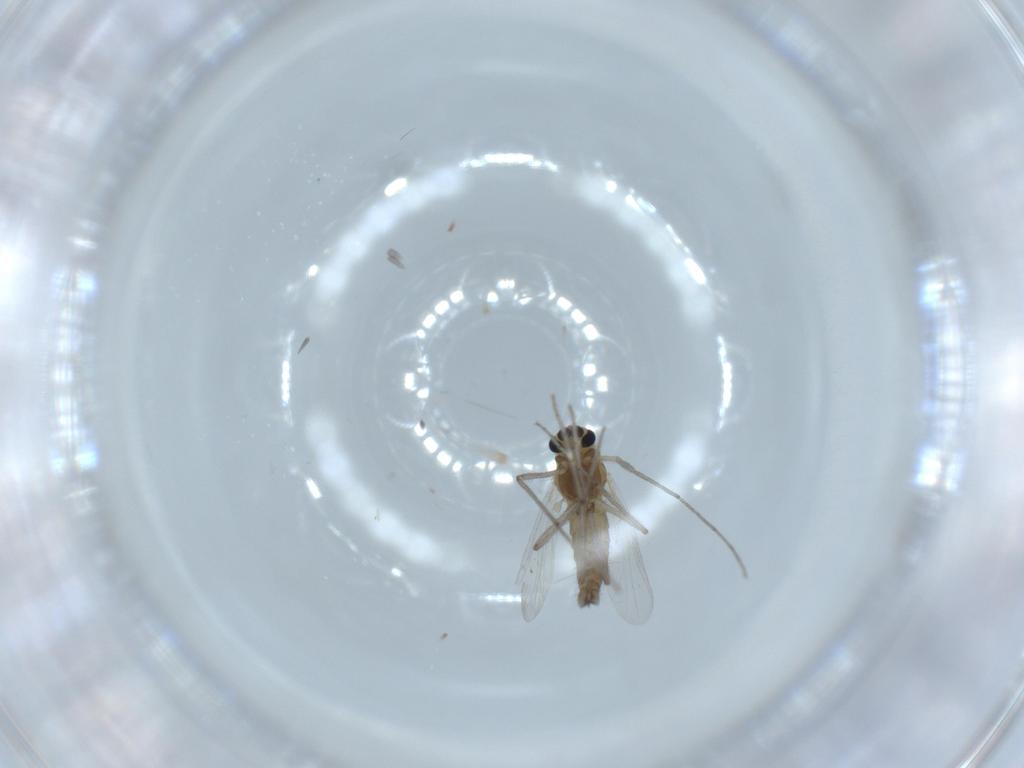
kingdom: Animalia
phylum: Arthropoda
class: Insecta
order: Diptera
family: Chironomidae
